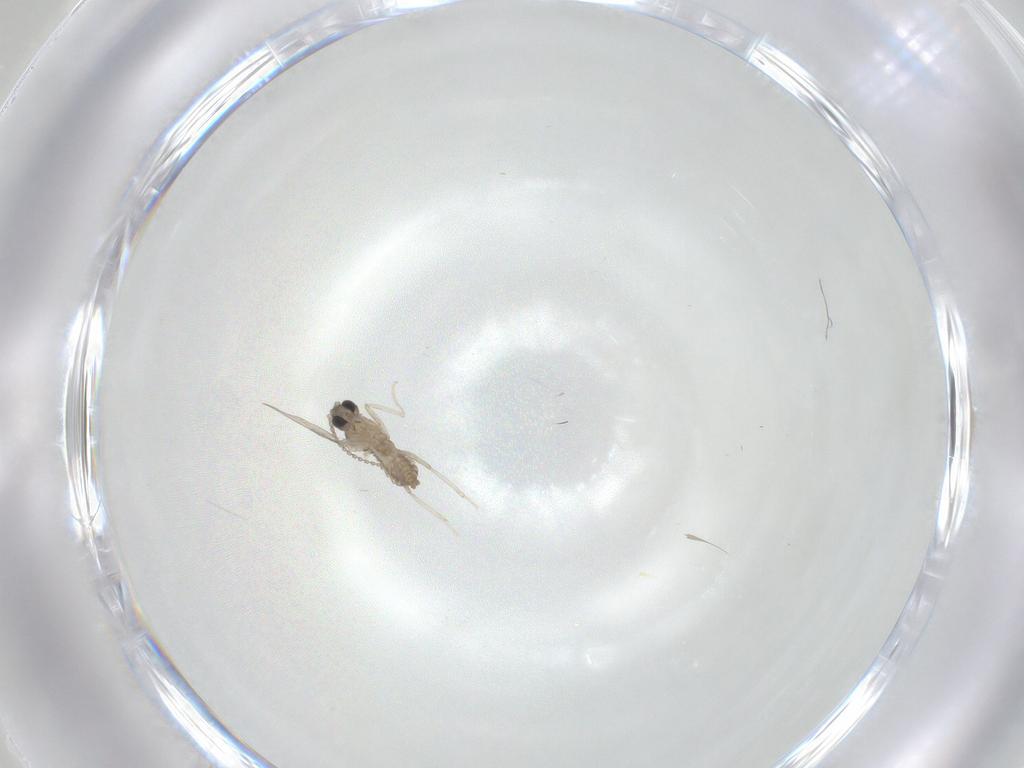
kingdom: Animalia
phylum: Arthropoda
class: Insecta
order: Diptera
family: Cecidomyiidae
